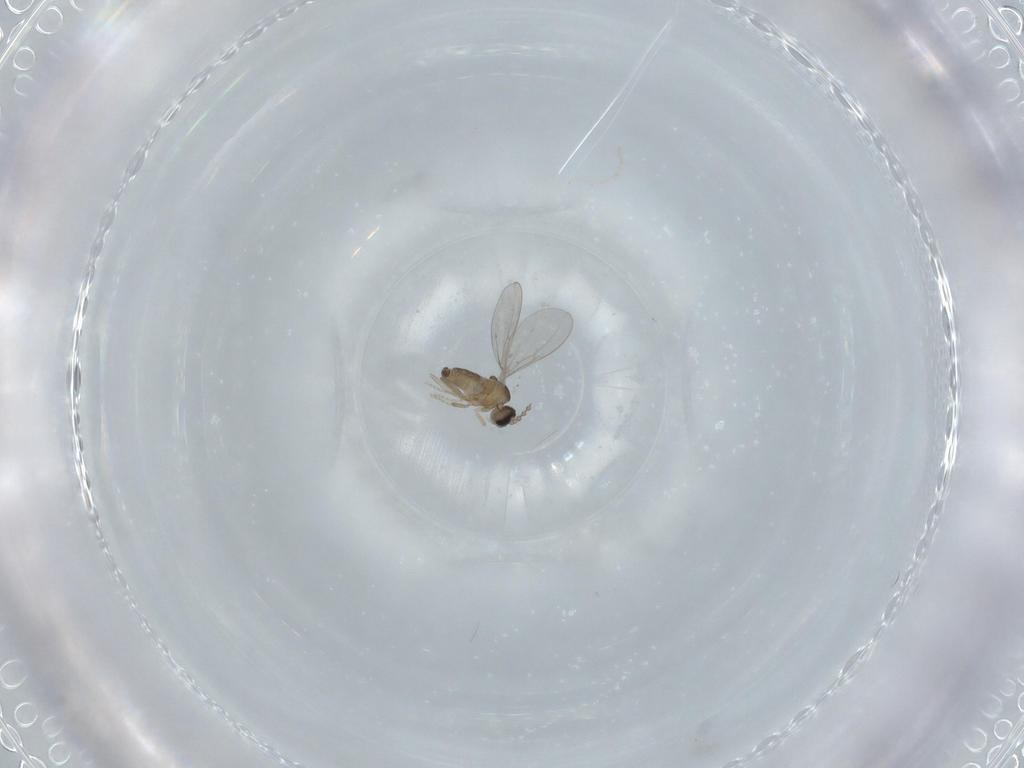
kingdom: Animalia
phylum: Arthropoda
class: Insecta
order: Diptera
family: Cecidomyiidae
